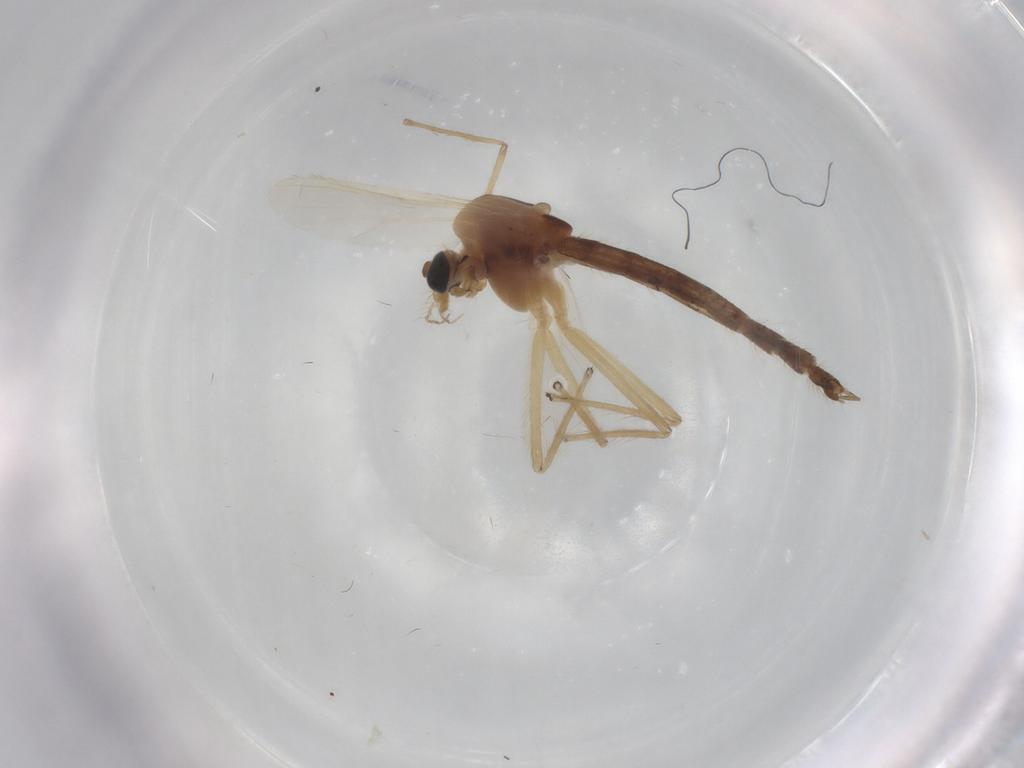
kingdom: Animalia
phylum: Arthropoda
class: Insecta
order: Diptera
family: Chironomidae
